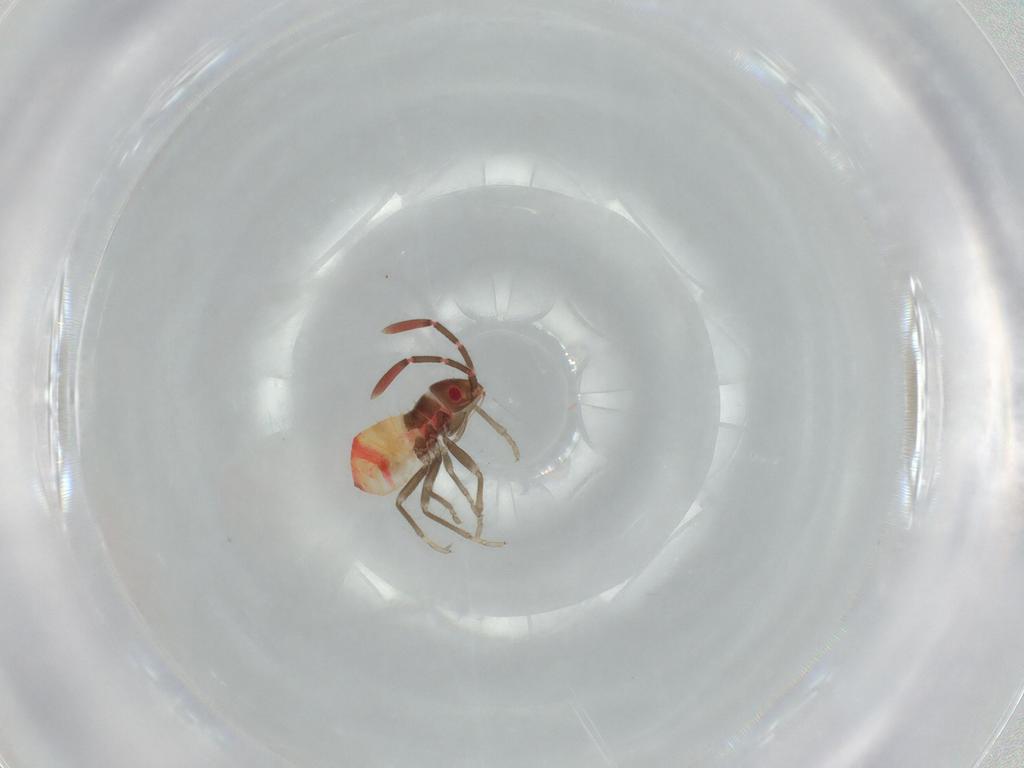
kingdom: Animalia
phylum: Arthropoda
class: Insecta
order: Hemiptera
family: Rhyparochromidae
